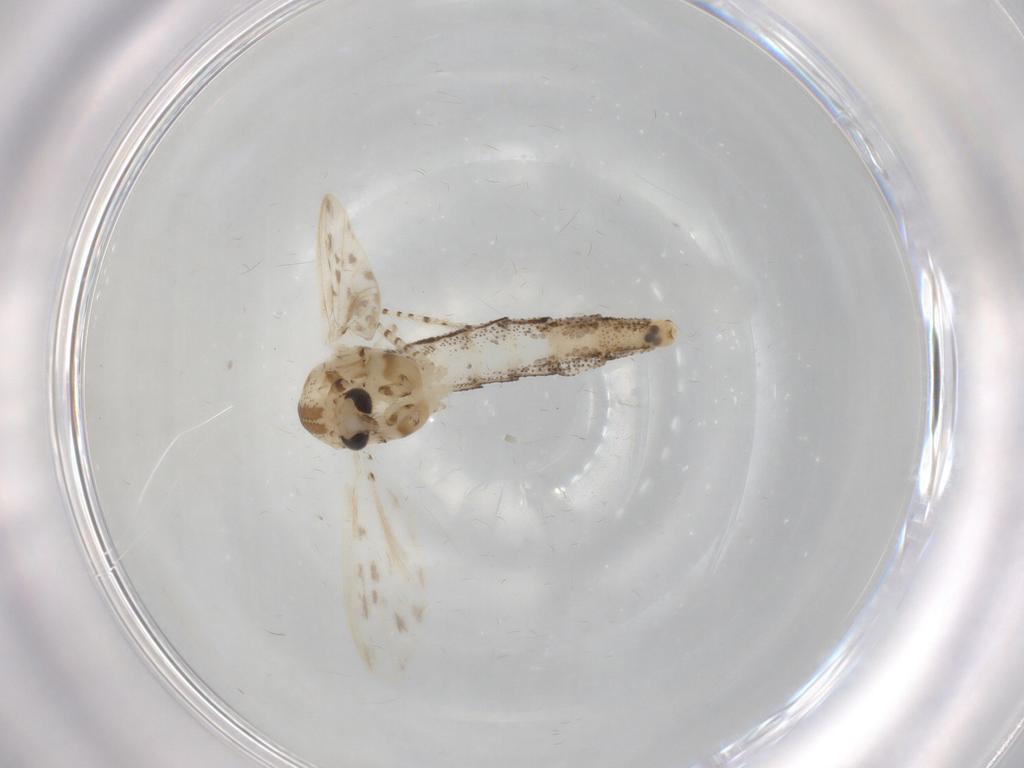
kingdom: Animalia
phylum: Arthropoda
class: Insecta
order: Diptera
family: Chaoboridae
